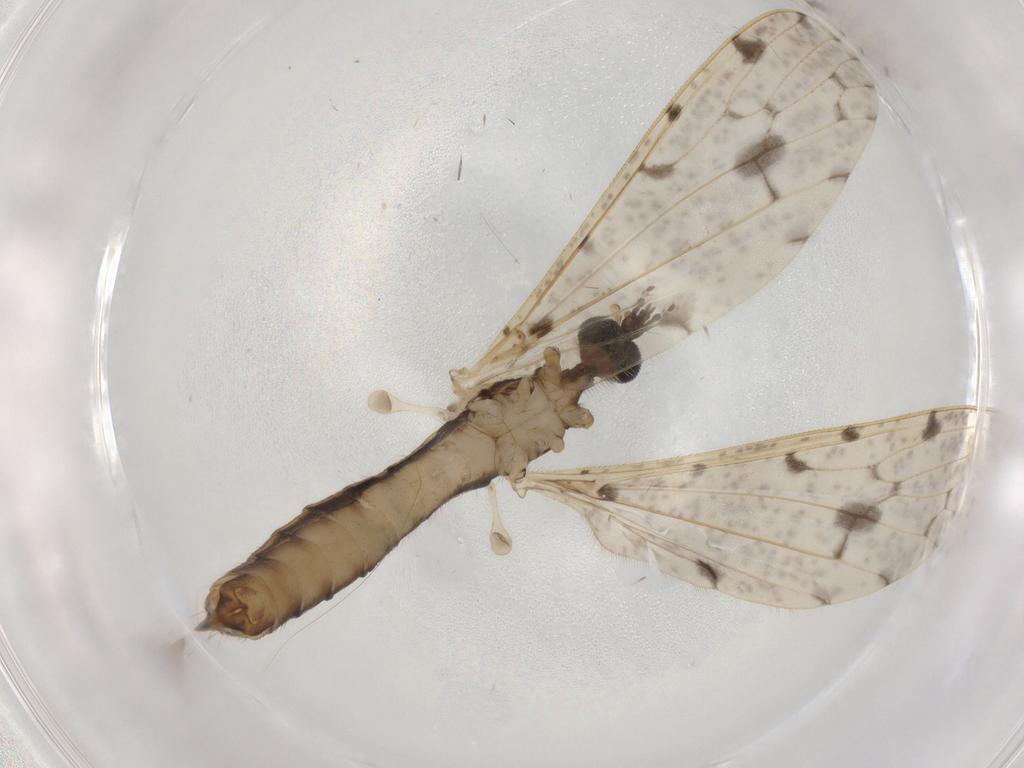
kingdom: Animalia
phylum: Arthropoda
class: Insecta
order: Diptera
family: Phoridae
